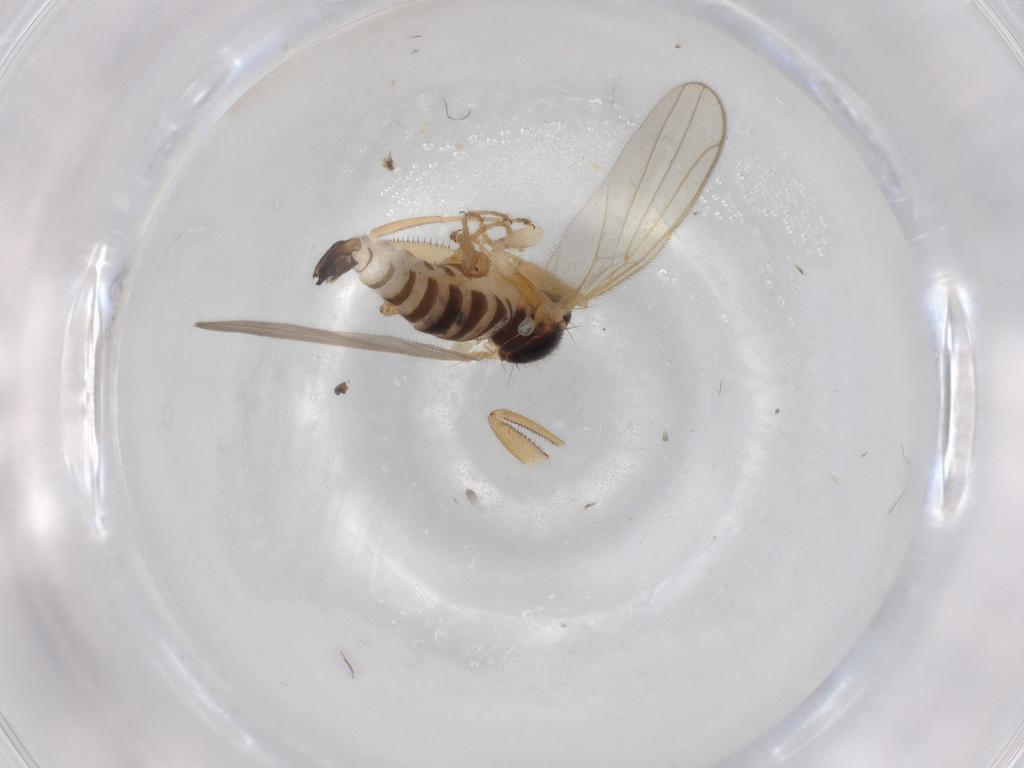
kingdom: Animalia
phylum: Arthropoda
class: Insecta
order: Diptera
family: Hybotidae
